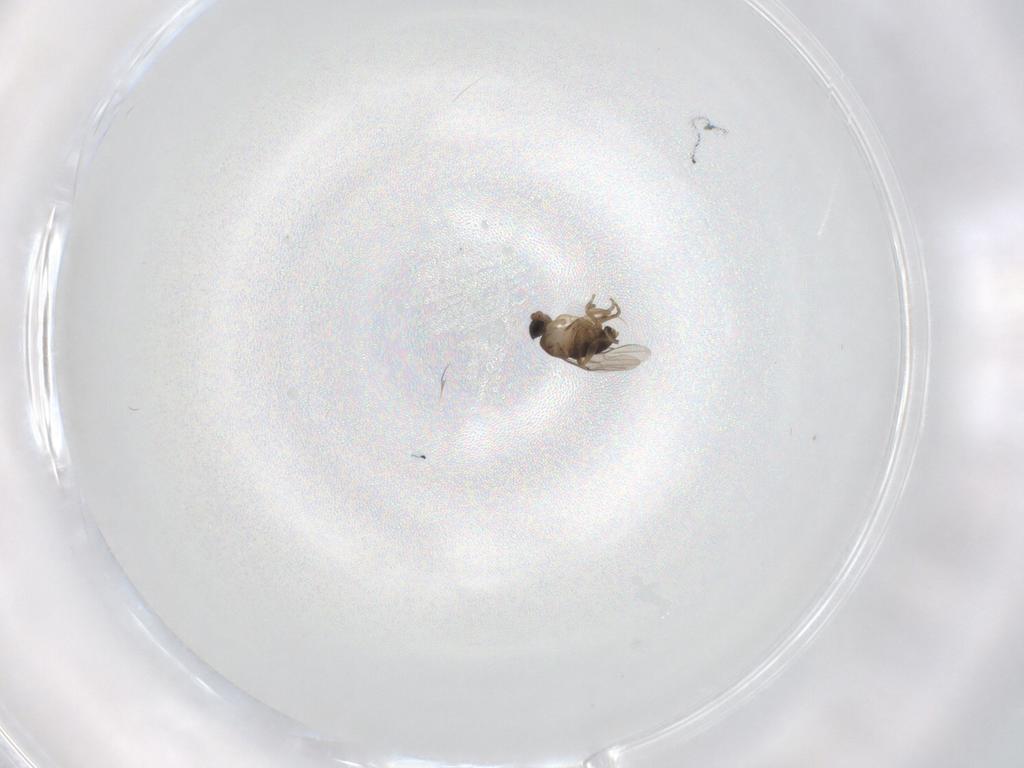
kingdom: Animalia
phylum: Arthropoda
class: Insecta
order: Diptera
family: Phoridae
